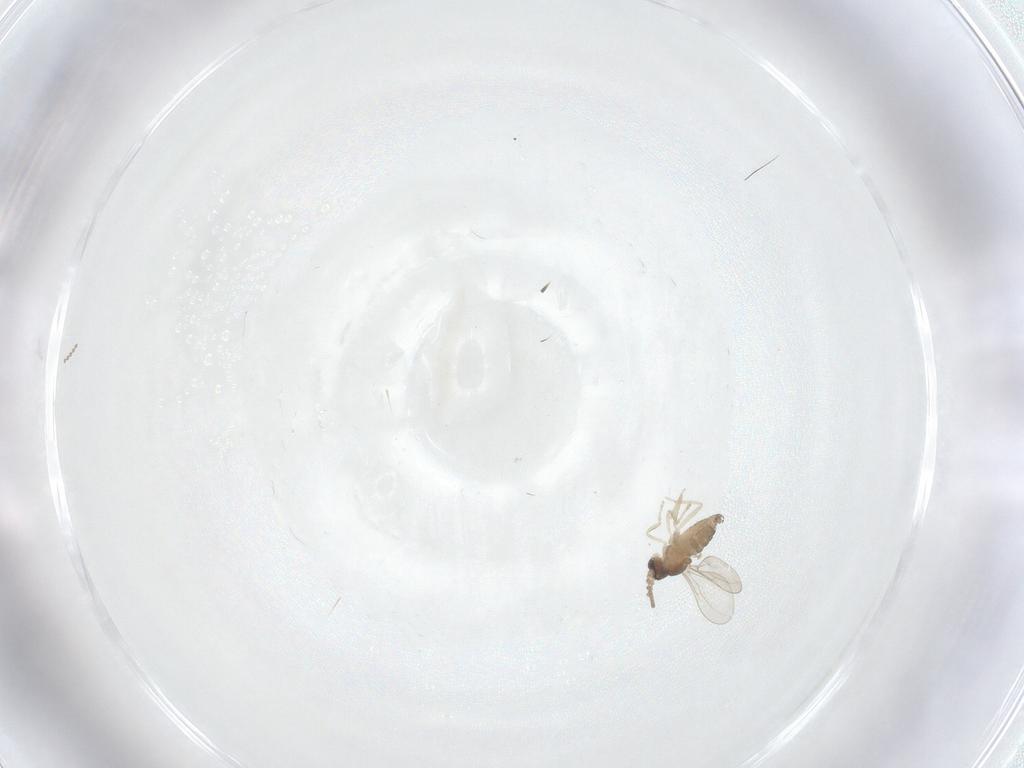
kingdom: Animalia
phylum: Arthropoda
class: Insecta
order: Diptera
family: Cecidomyiidae
